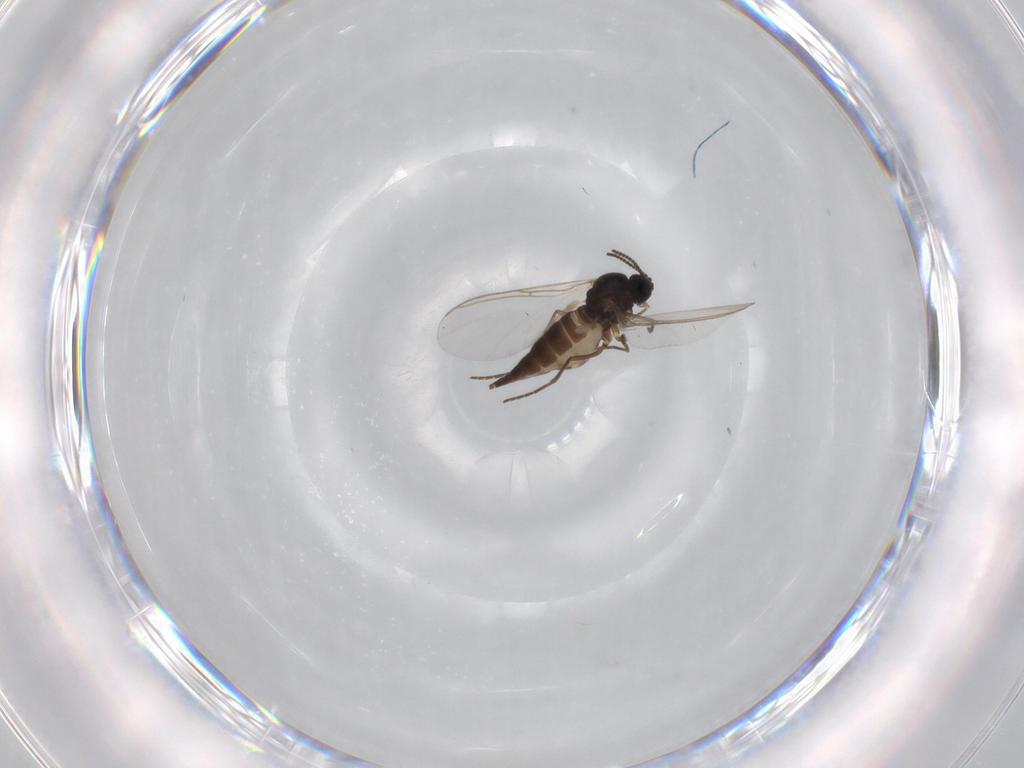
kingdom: Animalia
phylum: Arthropoda
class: Insecta
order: Diptera
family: Sciaridae
